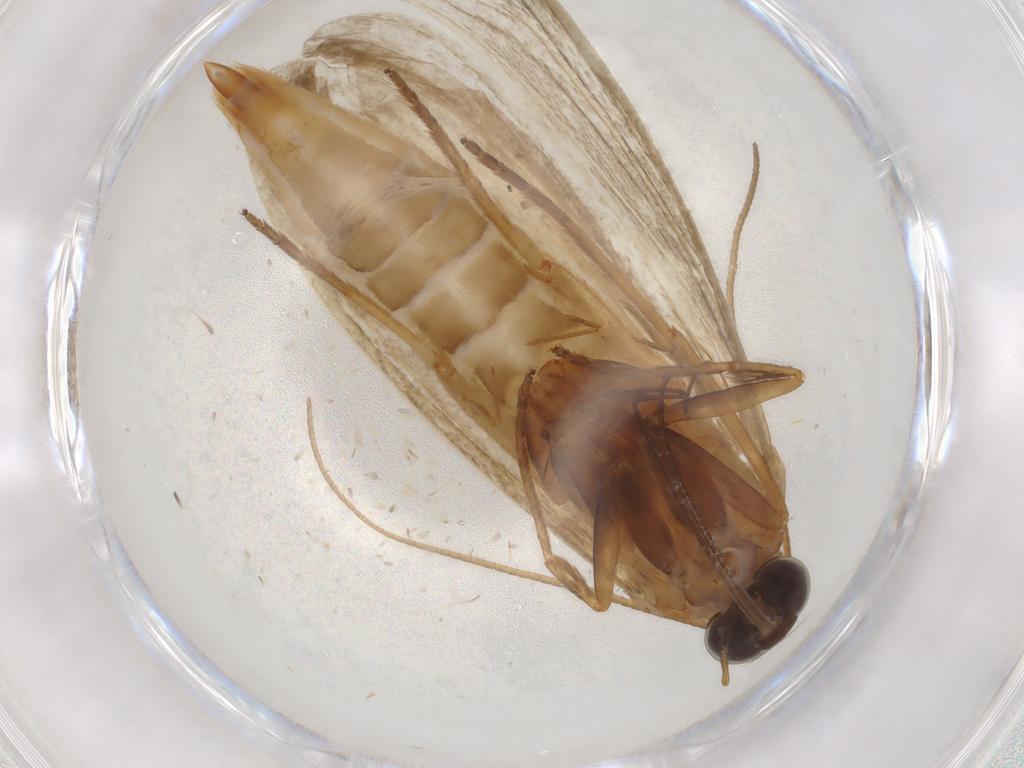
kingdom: Animalia
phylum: Arthropoda
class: Insecta
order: Lepidoptera
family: Pyralidae
